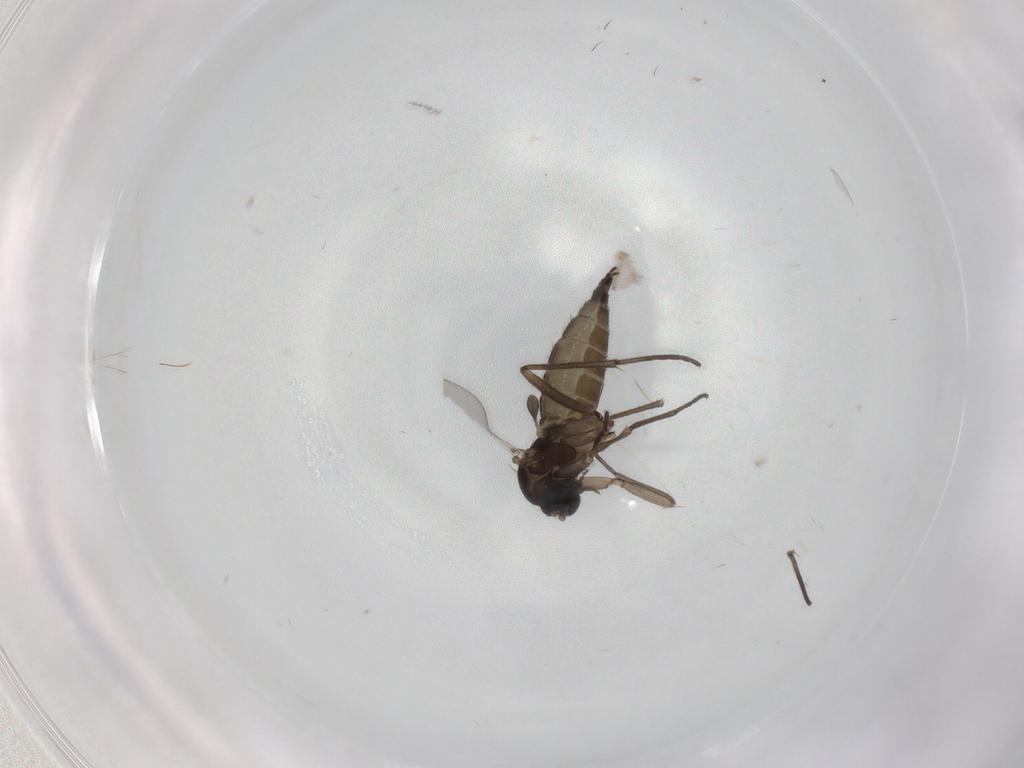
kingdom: Animalia
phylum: Arthropoda
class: Insecta
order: Diptera
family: Sciaridae
